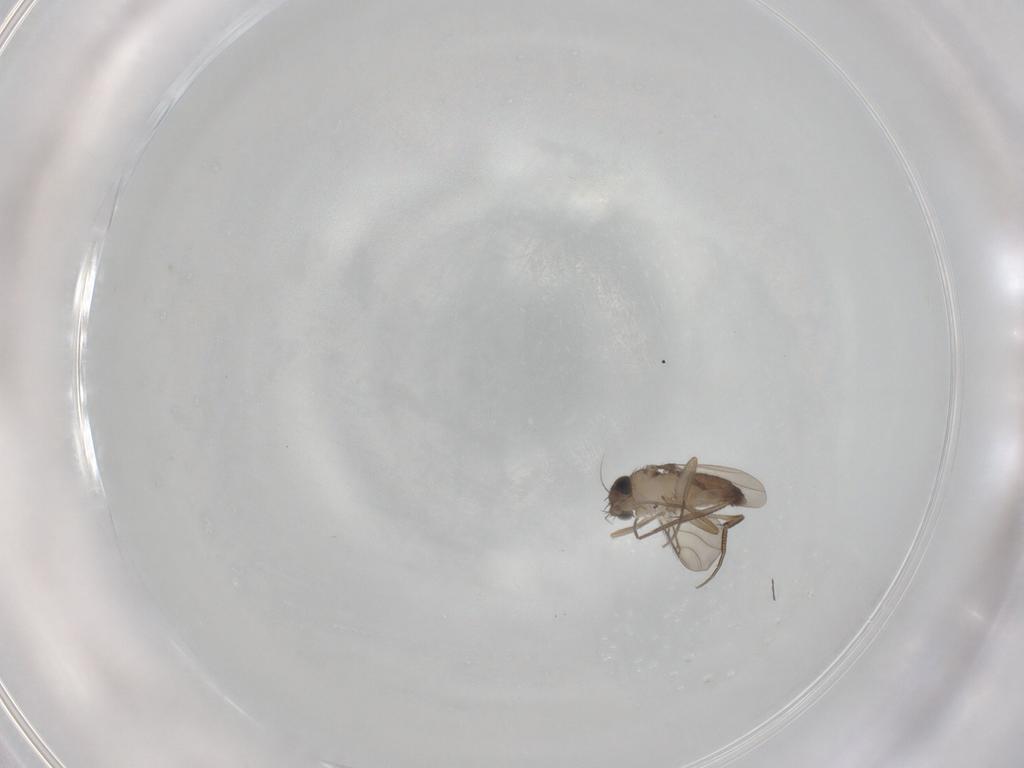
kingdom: Animalia
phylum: Arthropoda
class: Insecta
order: Diptera
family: Phoridae
